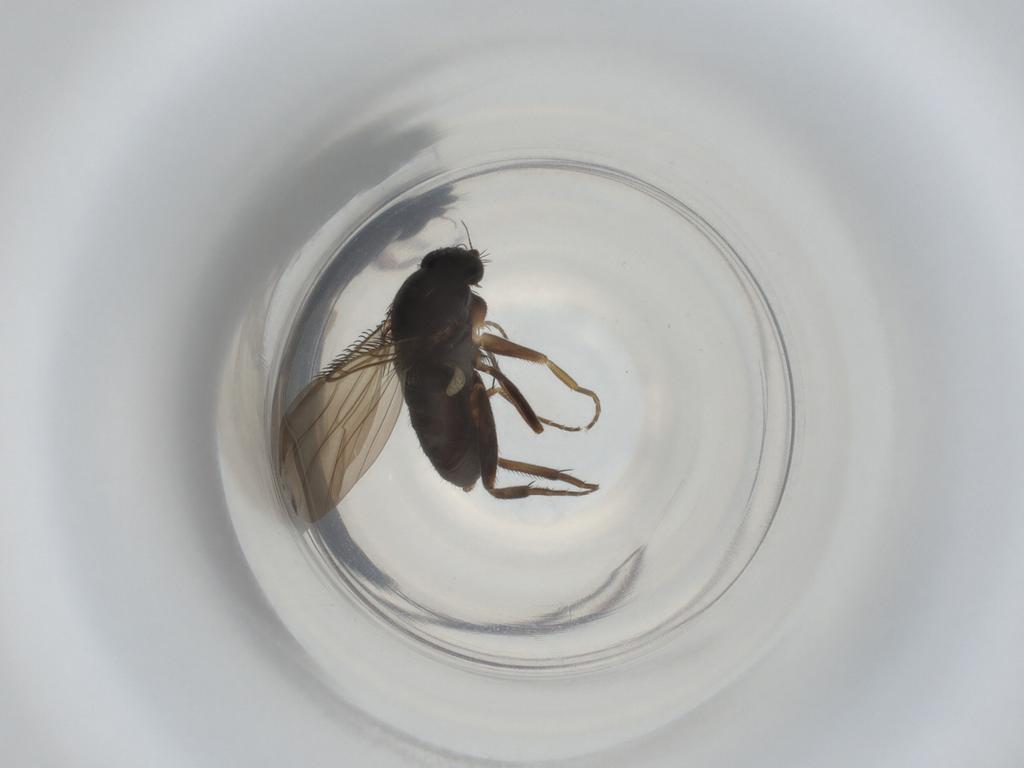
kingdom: Animalia
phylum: Arthropoda
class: Insecta
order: Diptera
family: Phoridae
